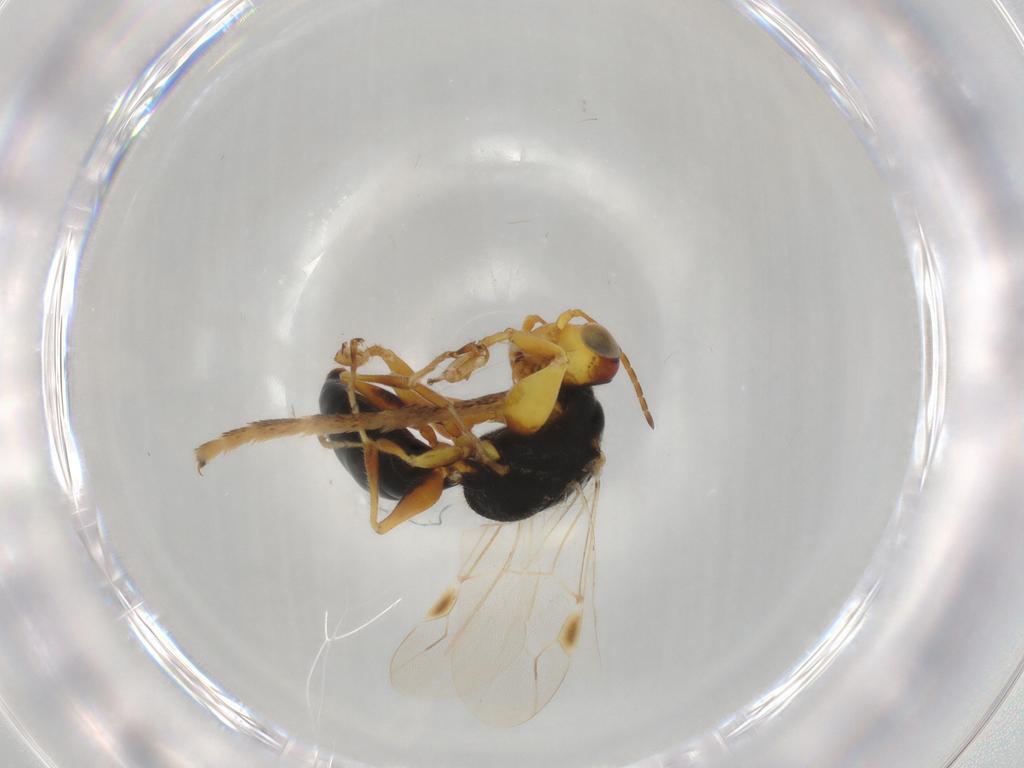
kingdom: Animalia
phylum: Arthropoda
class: Insecta
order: Hymenoptera
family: Dryinidae
